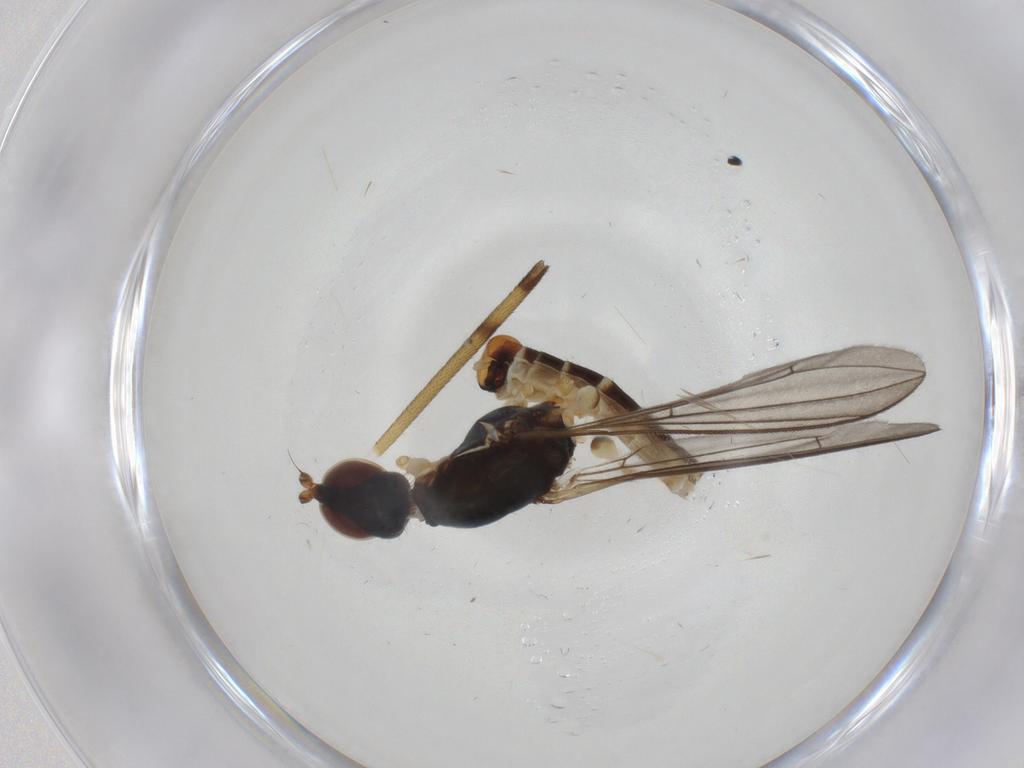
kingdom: Animalia
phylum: Arthropoda
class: Insecta
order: Diptera
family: Micropezidae
